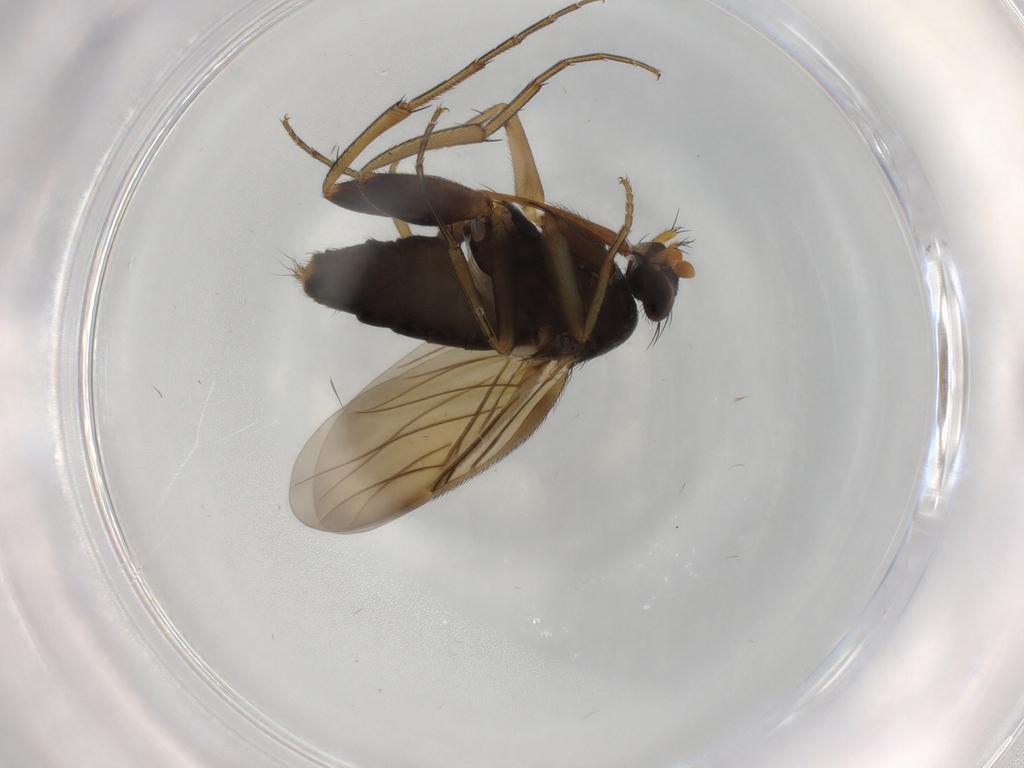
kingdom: Animalia
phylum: Arthropoda
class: Insecta
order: Diptera
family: Phoridae
